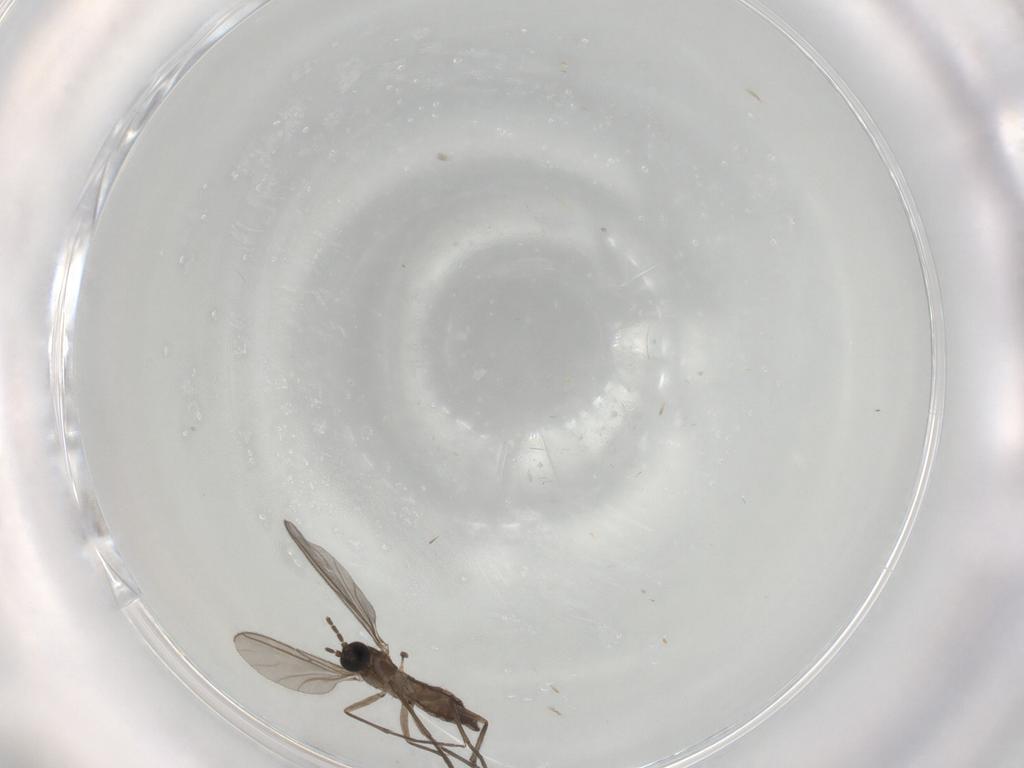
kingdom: Animalia
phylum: Arthropoda
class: Insecta
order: Diptera
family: Sciaridae
